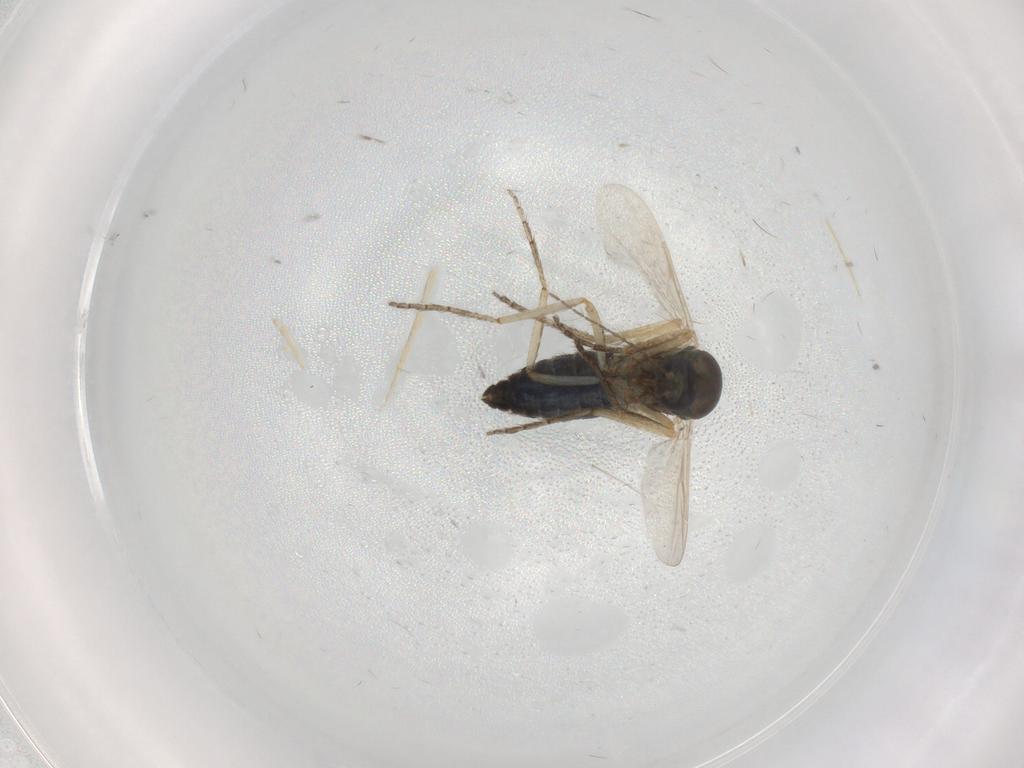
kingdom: Animalia
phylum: Arthropoda
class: Insecta
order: Diptera
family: Ceratopogonidae
